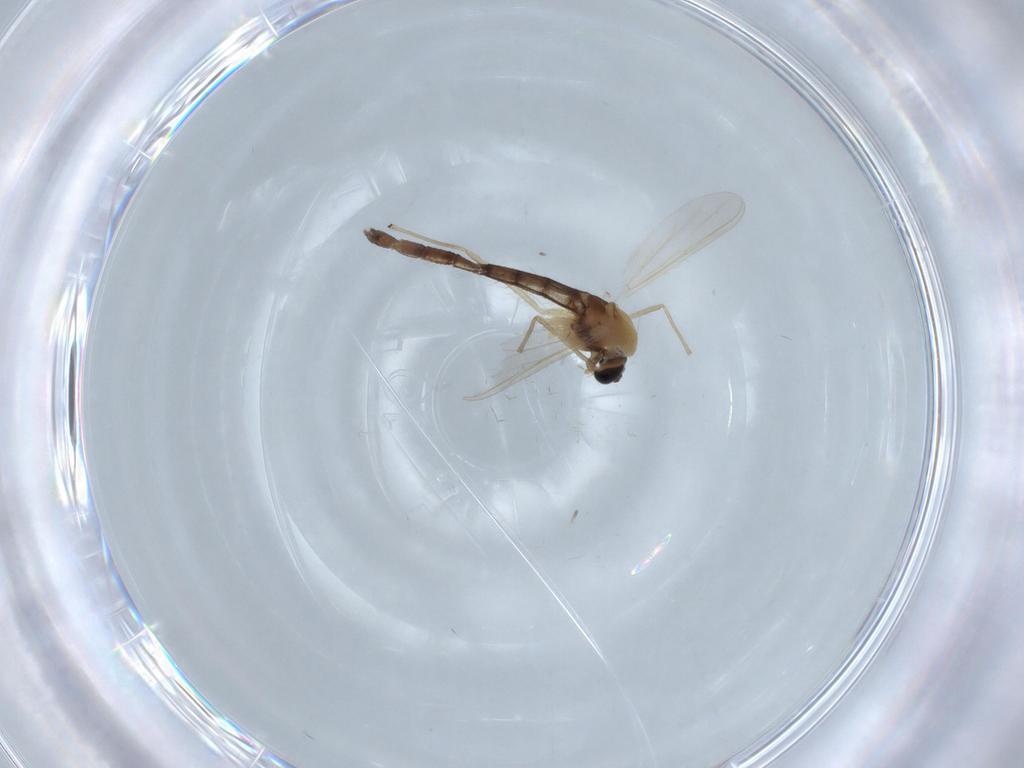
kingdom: Animalia
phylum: Arthropoda
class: Insecta
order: Diptera
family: Chironomidae
